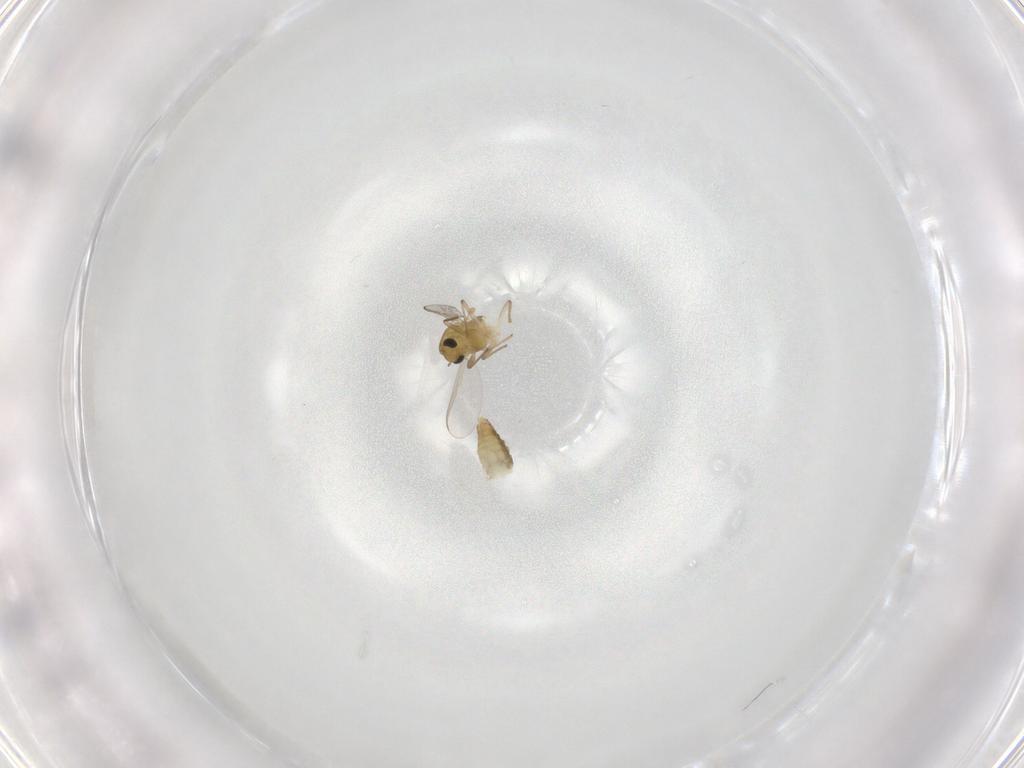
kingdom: Animalia
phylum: Arthropoda
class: Insecta
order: Diptera
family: Chironomidae
